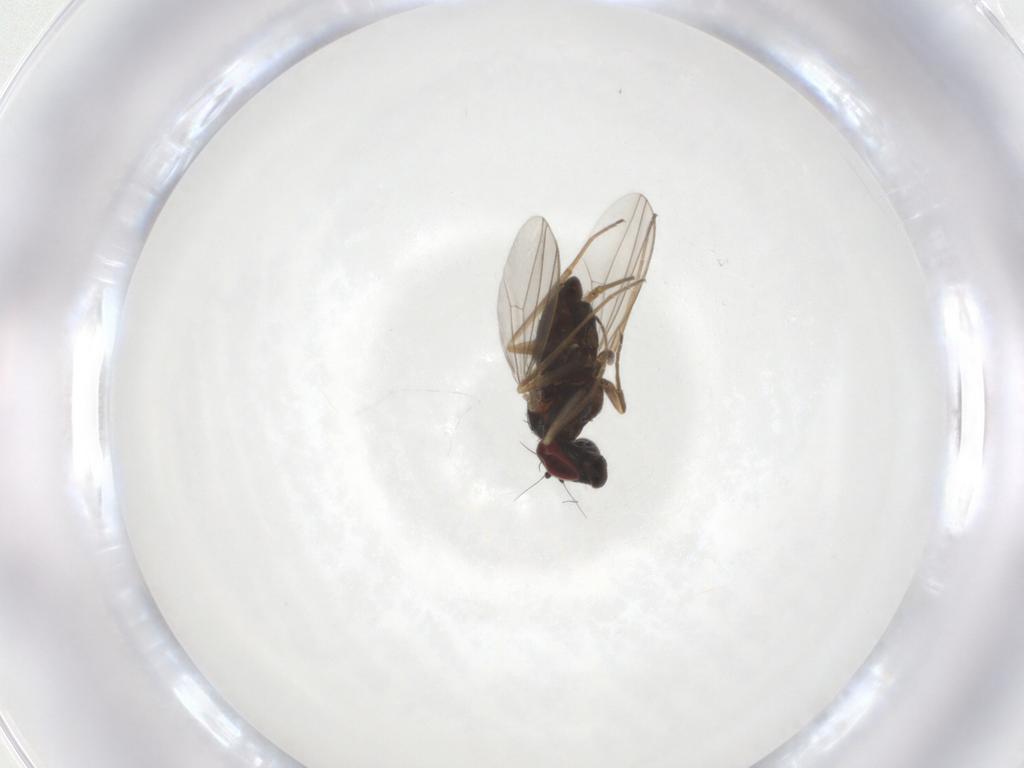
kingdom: Animalia
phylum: Arthropoda
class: Insecta
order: Diptera
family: Dolichopodidae
